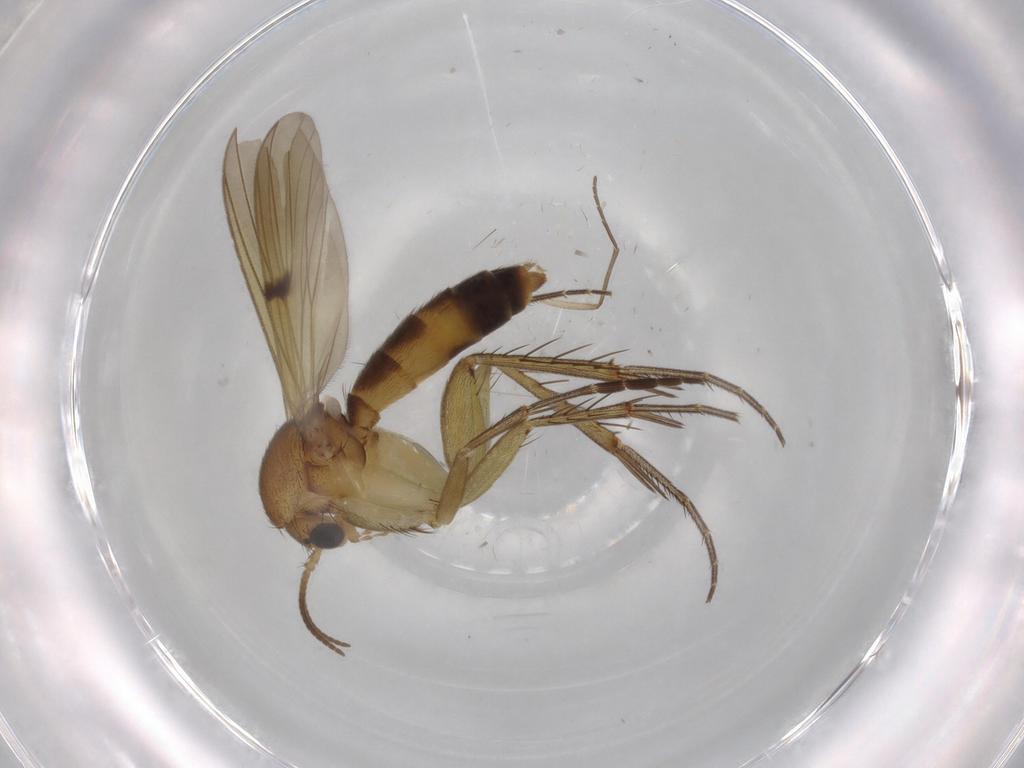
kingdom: Animalia
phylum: Arthropoda
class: Insecta
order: Diptera
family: Mycetophilidae
